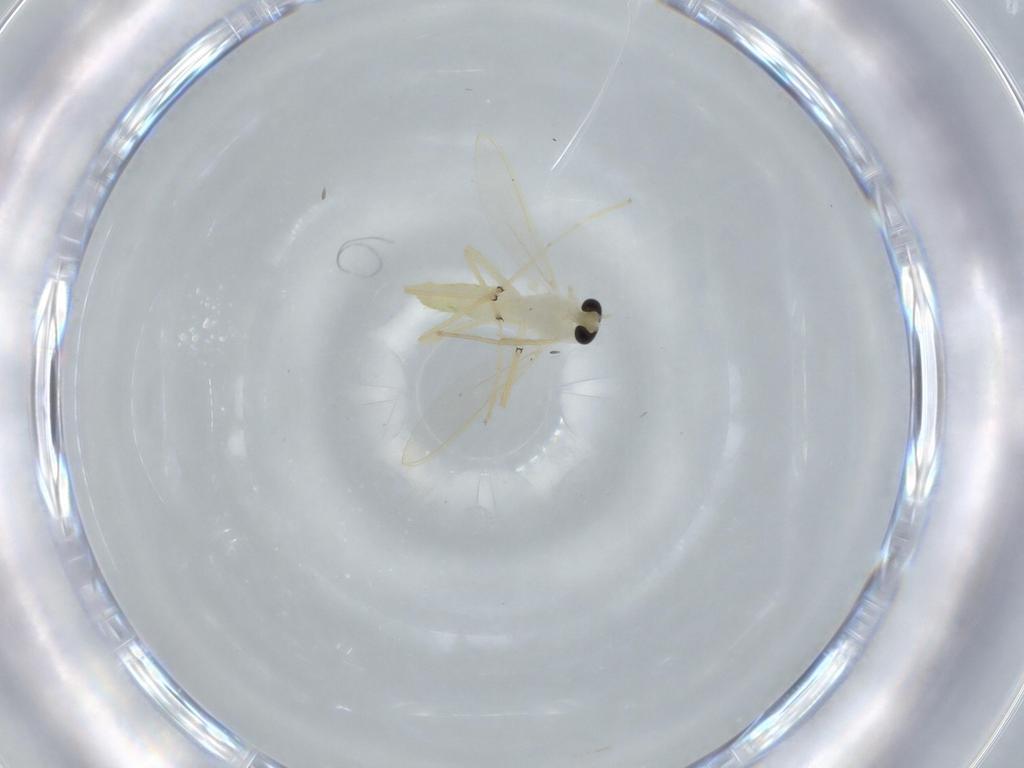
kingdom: Animalia
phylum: Arthropoda
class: Insecta
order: Diptera
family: Chironomidae
